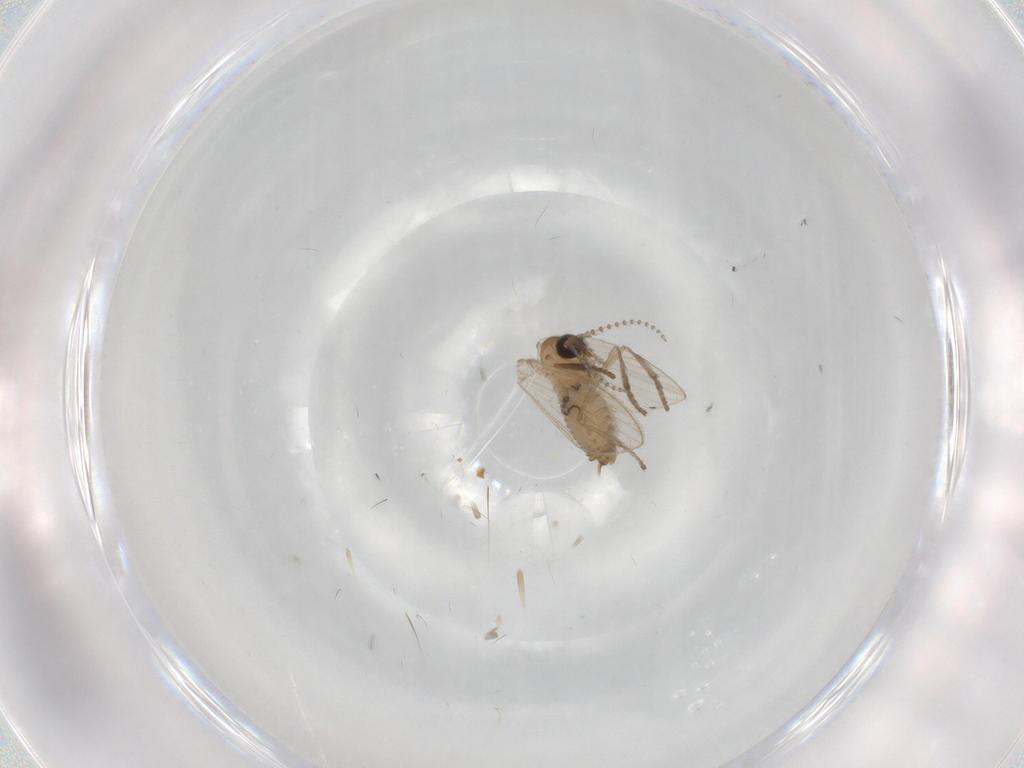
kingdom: Animalia
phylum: Arthropoda
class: Insecta
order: Diptera
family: Psychodidae
